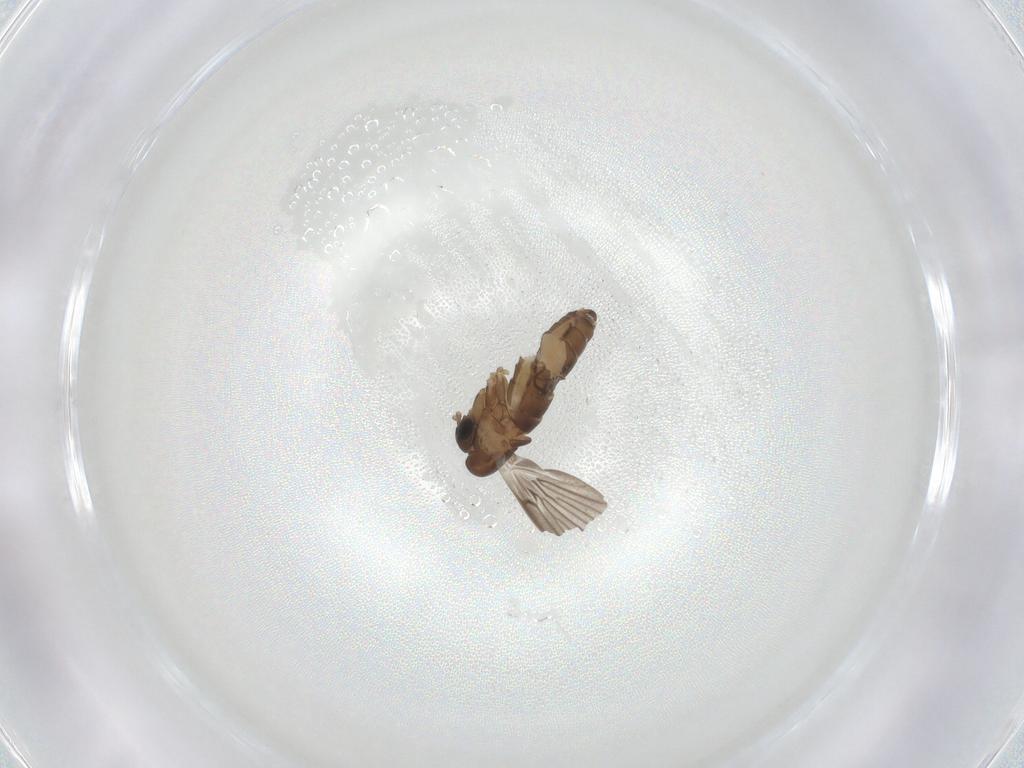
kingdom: Animalia
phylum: Arthropoda
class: Insecta
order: Diptera
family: Psychodidae
